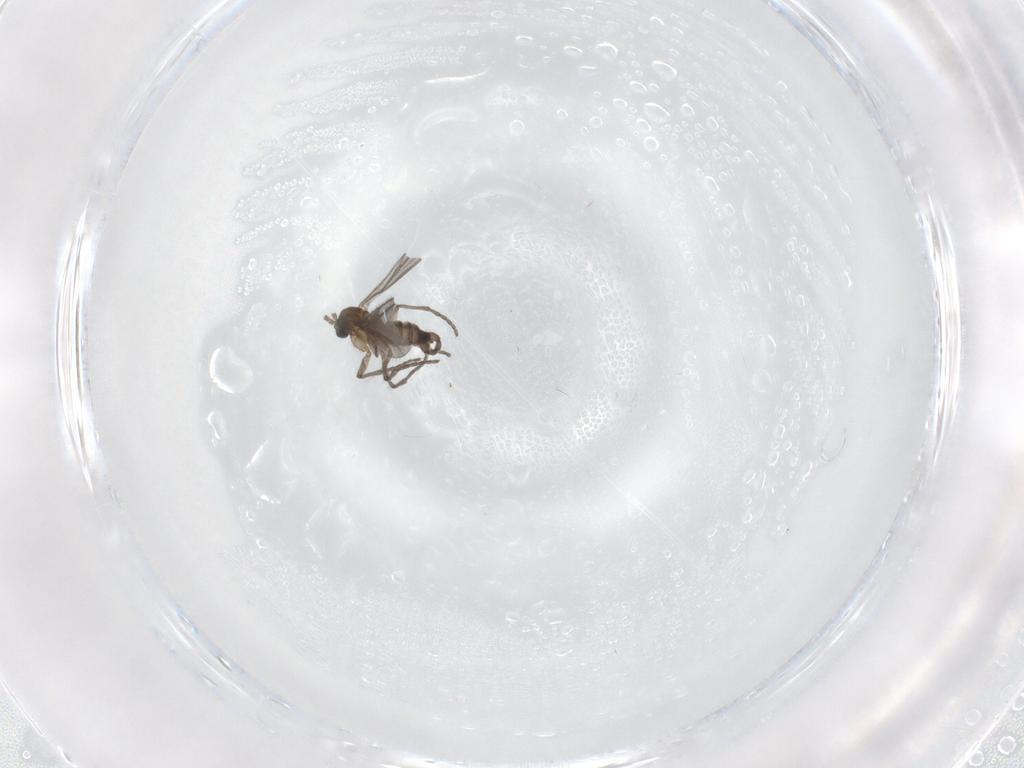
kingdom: Animalia
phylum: Arthropoda
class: Insecta
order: Diptera
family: Sciaridae
